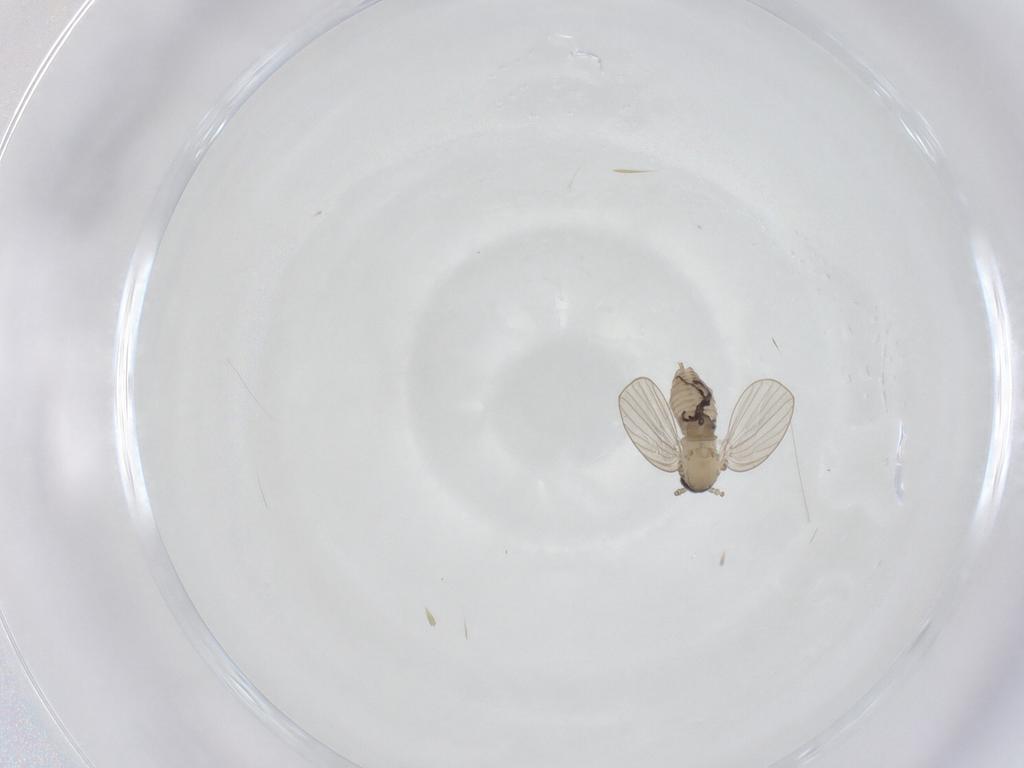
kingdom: Animalia
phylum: Arthropoda
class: Insecta
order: Diptera
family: Psychodidae
